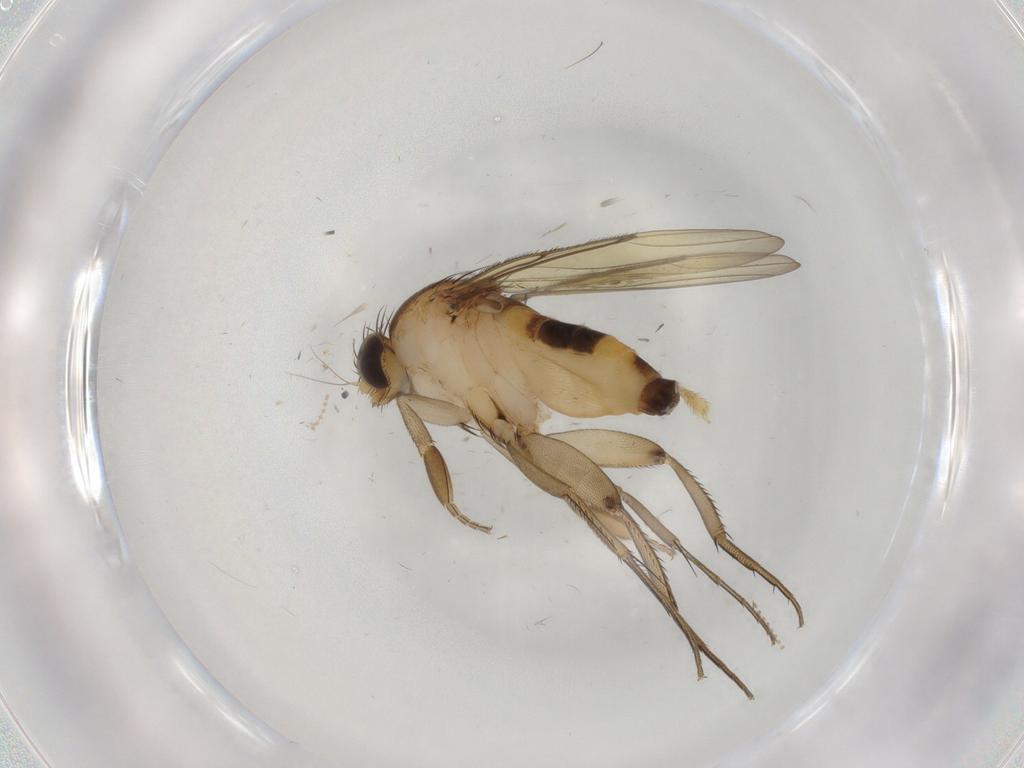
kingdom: Animalia
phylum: Arthropoda
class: Insecta
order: Diptera
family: Phoridae
